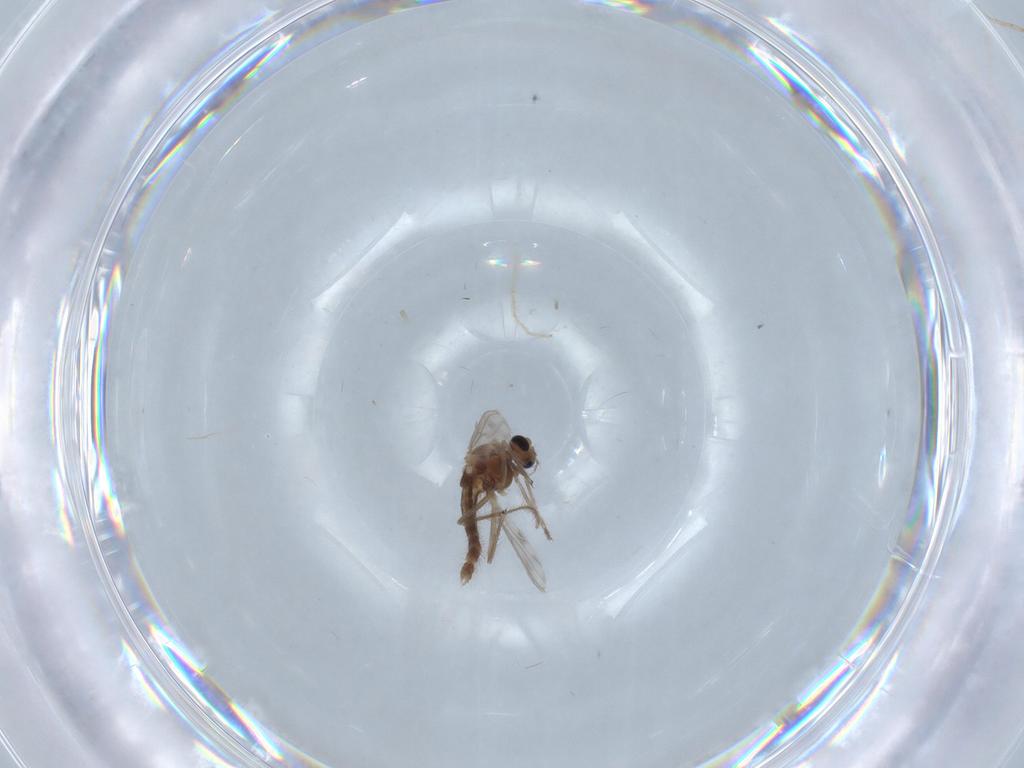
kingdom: Animalia
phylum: Arthropoda
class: Insecta
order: Diptera
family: Chironomidae
